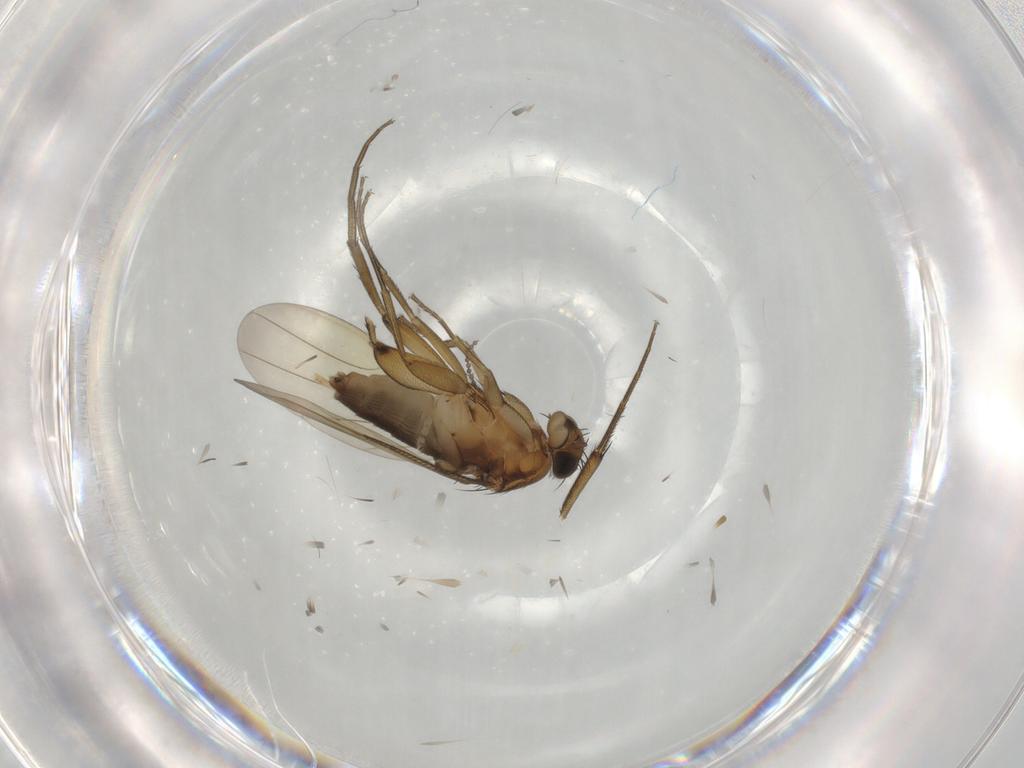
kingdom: Animalia
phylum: Arthropoda
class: Insecta
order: Diptera
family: Phoridae
